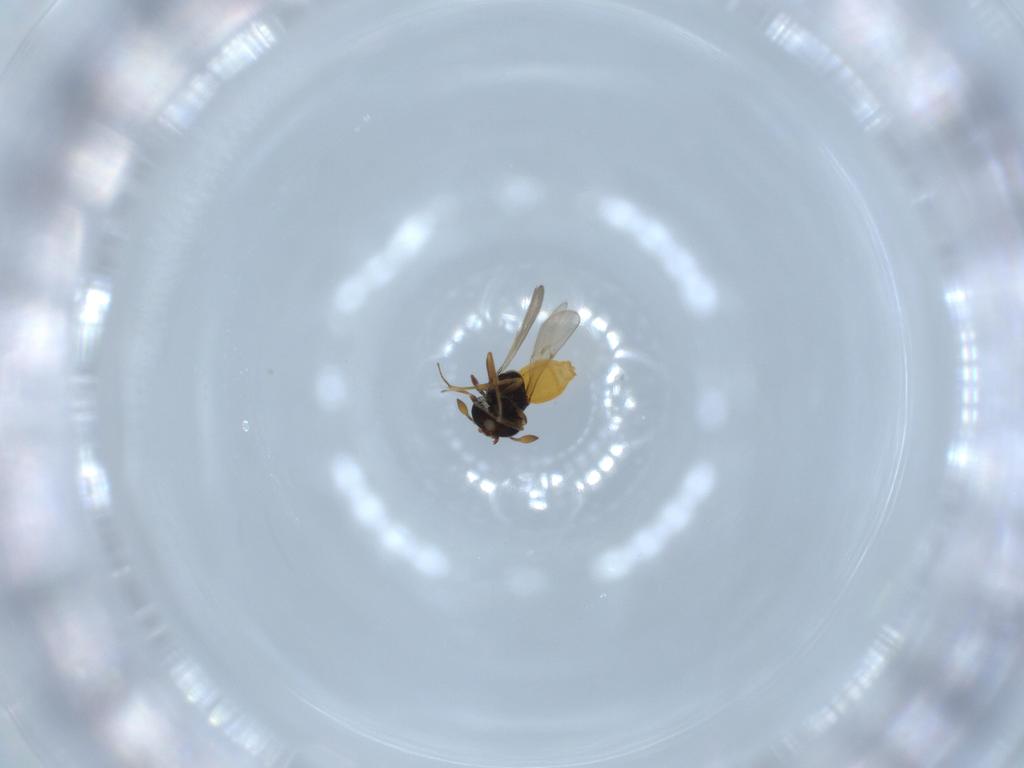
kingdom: Animalia
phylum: Arthropoda
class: Insecta
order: Hymenoptera
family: Scelionidae
